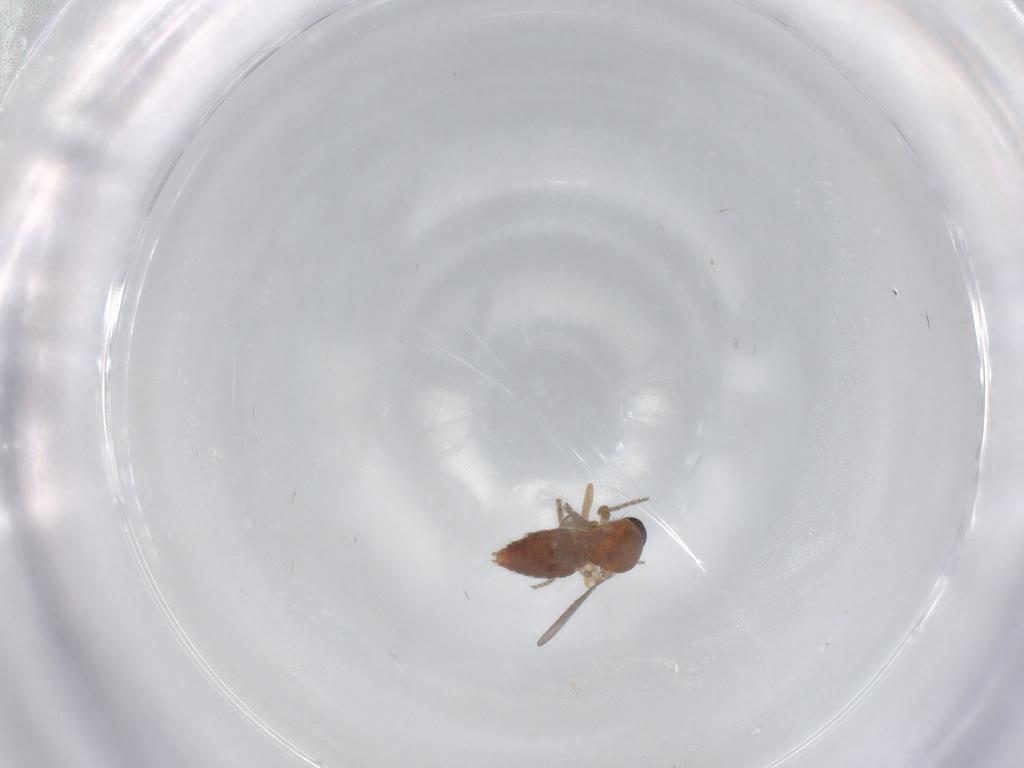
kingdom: Animalia
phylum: Arthropoda
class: Insecta
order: Diptera
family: Ceratopogonidae
